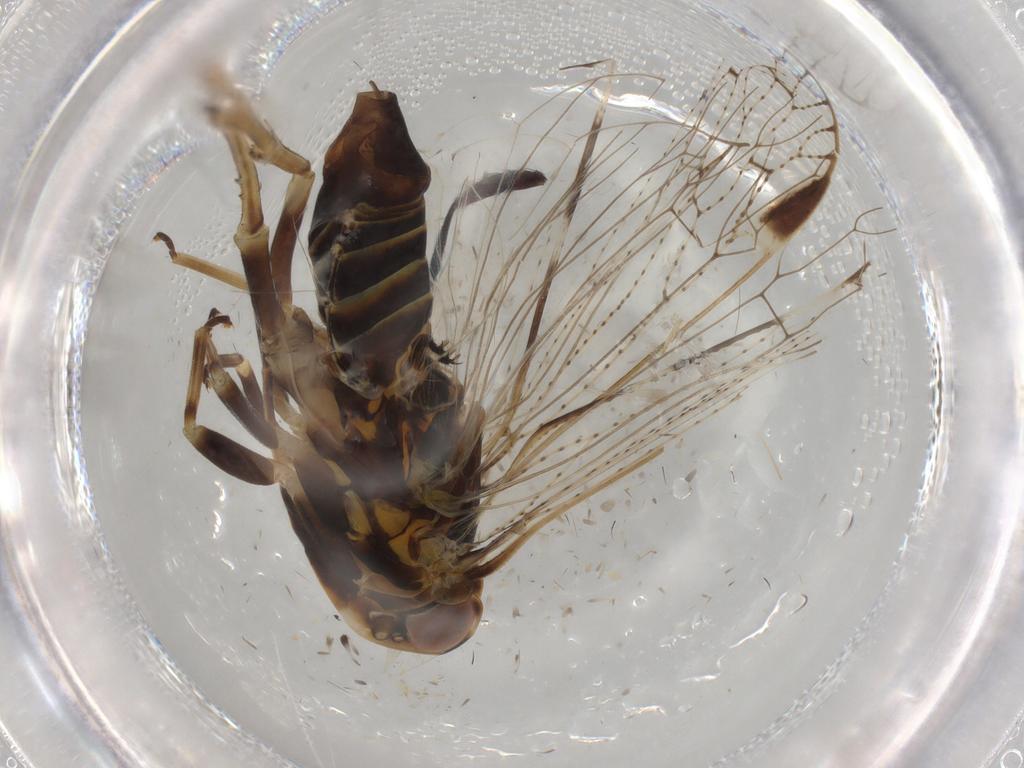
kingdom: Animalia
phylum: Arthropoda
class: Insecta
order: Hemiptera
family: Cixiidae
